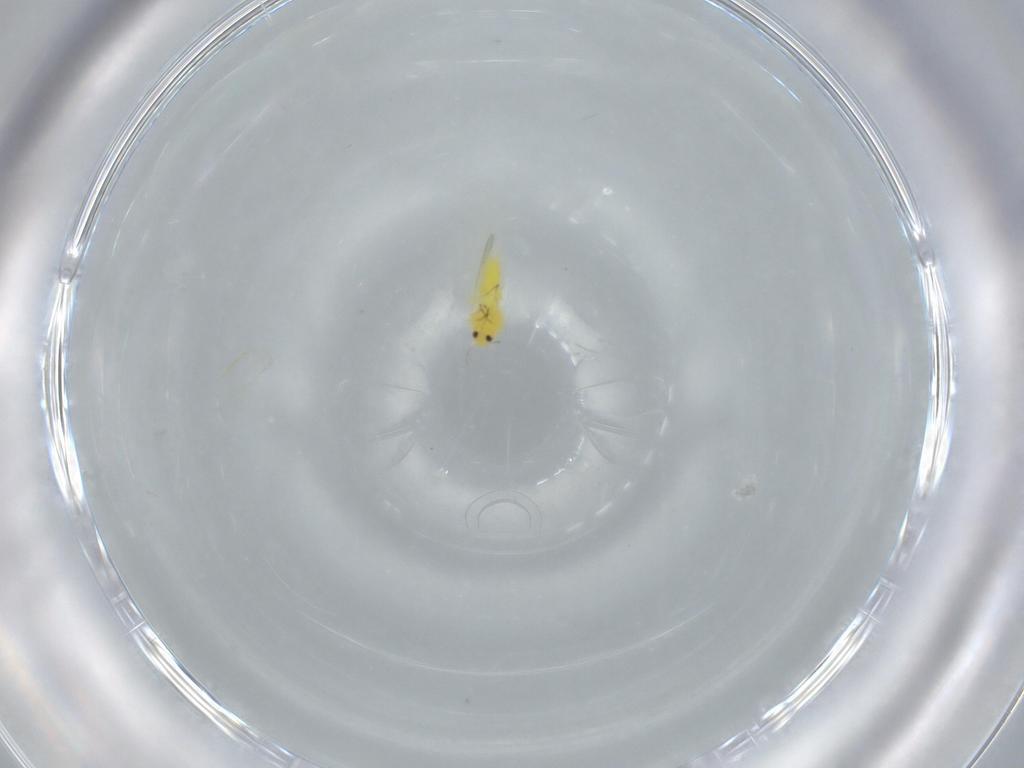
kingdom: Animalia
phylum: Arthropoda
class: Insecta
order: Hemiptera
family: Aleyrodidae
